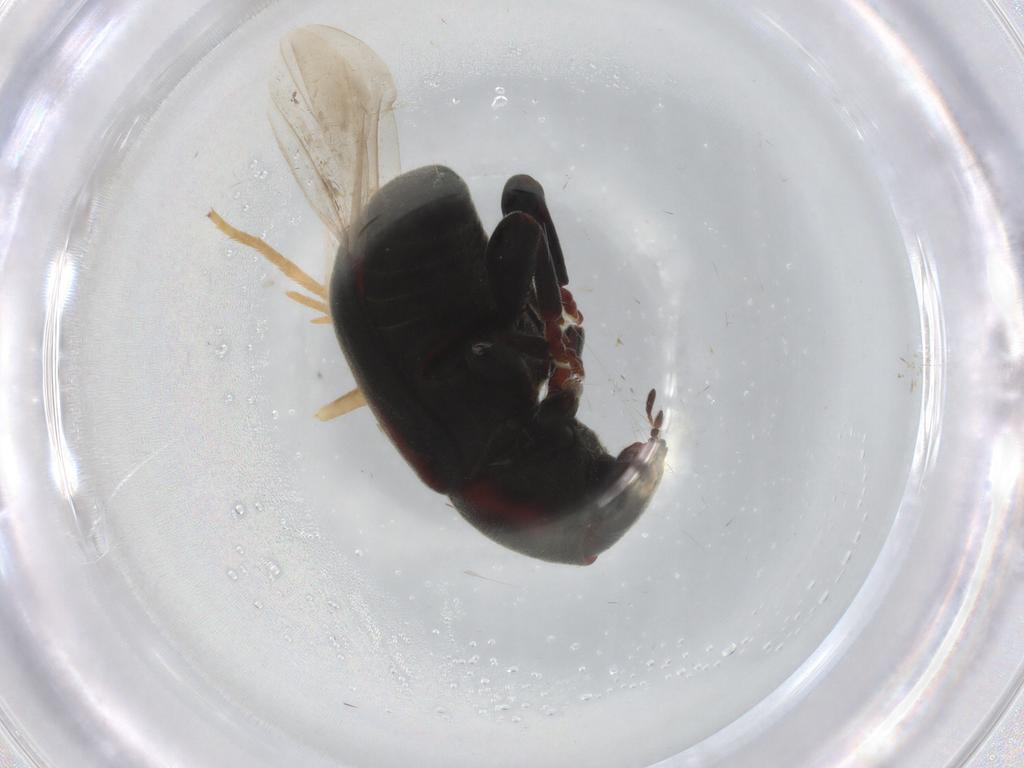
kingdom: Animalia
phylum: Arthropoda
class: Insecta
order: Coleoptera
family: Anthribidae
